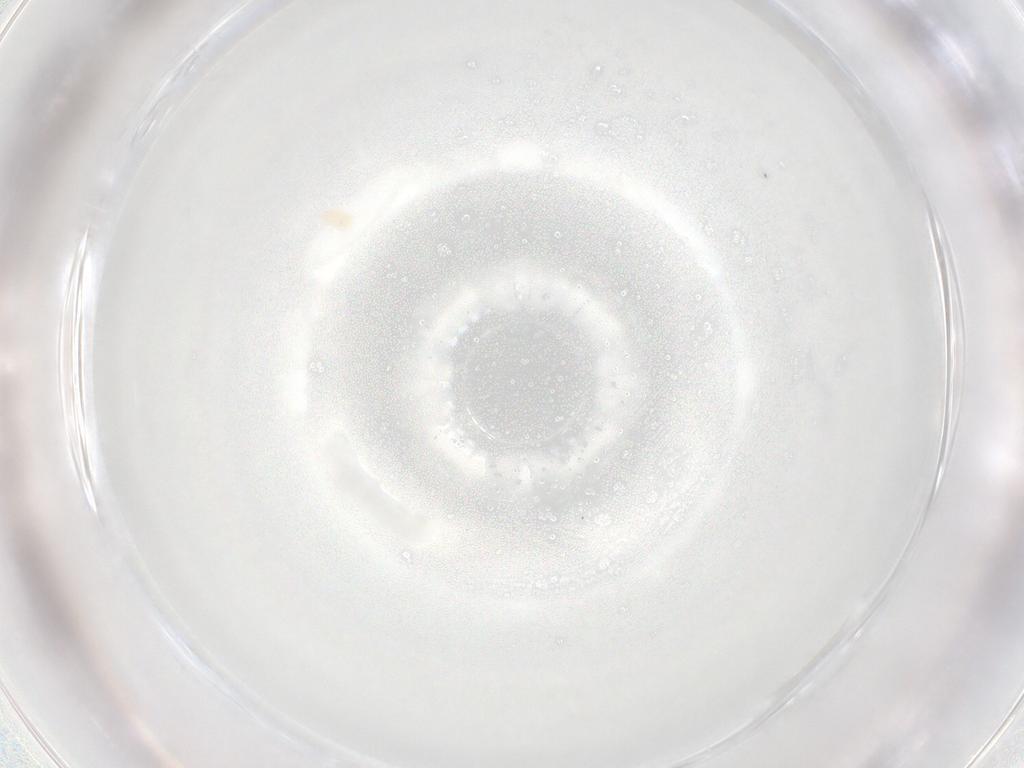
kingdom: Animalia
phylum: Arthropoda
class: Arachnida
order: Trombidiformes
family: Eupodidae
